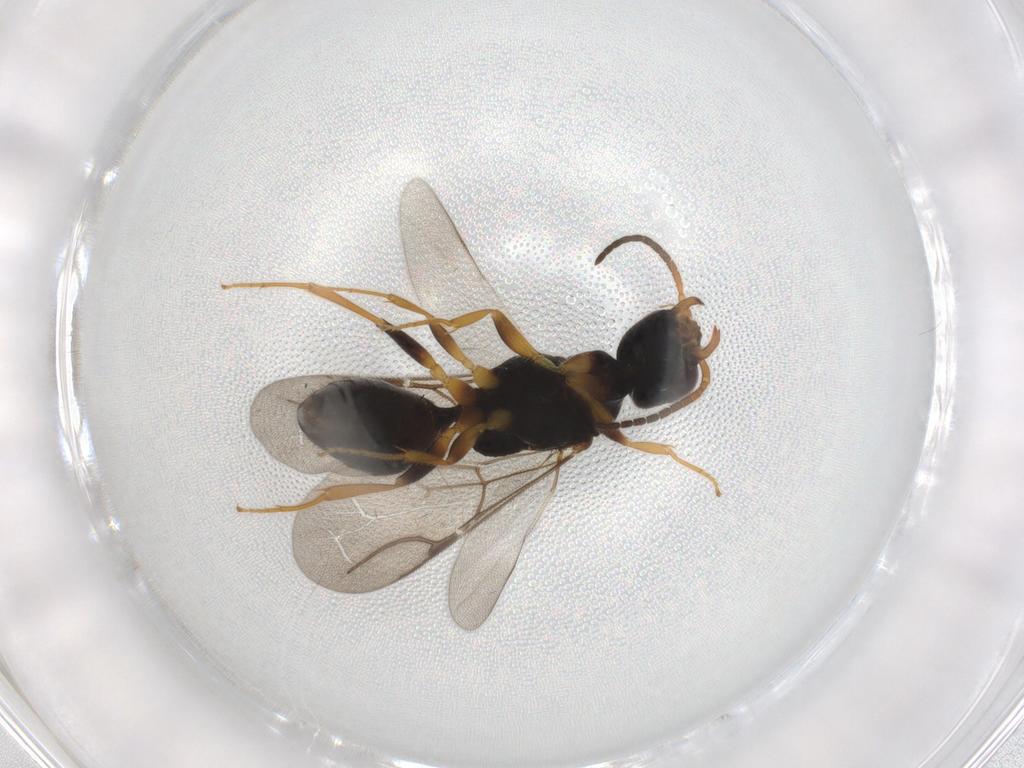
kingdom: Animalia
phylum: Arthropoda
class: Insecta
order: Hymenoptera
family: Bethylidae
